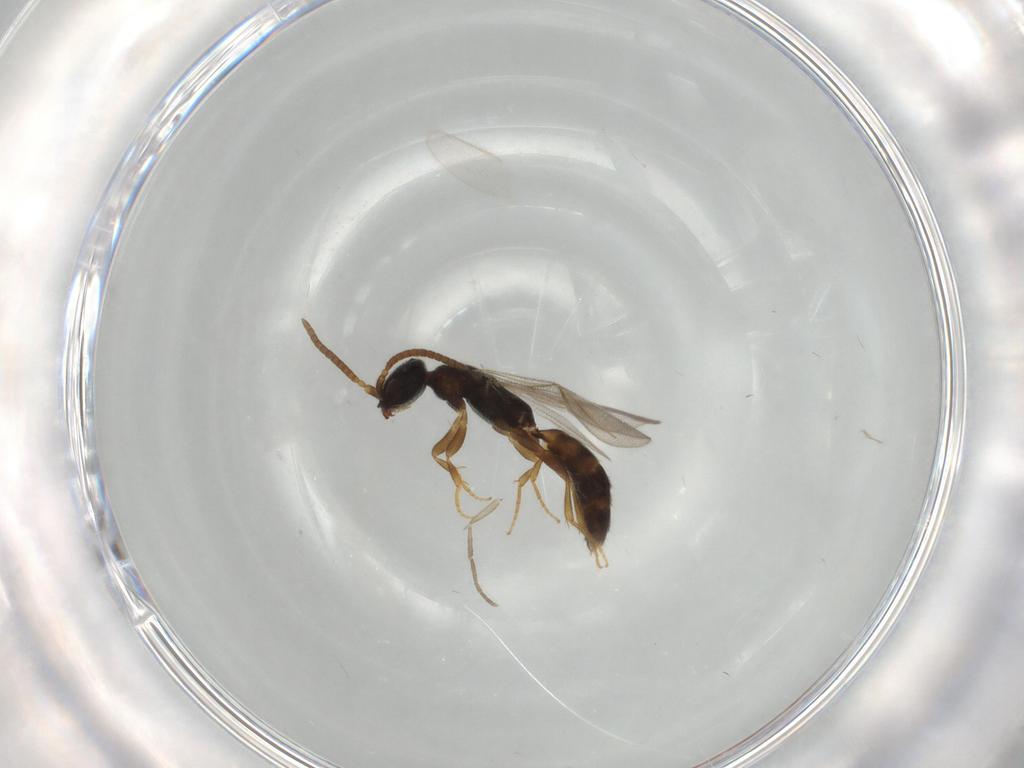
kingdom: Animalia
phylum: Arthropoda
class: Insecta
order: Hymenoptera
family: Bethylidae
